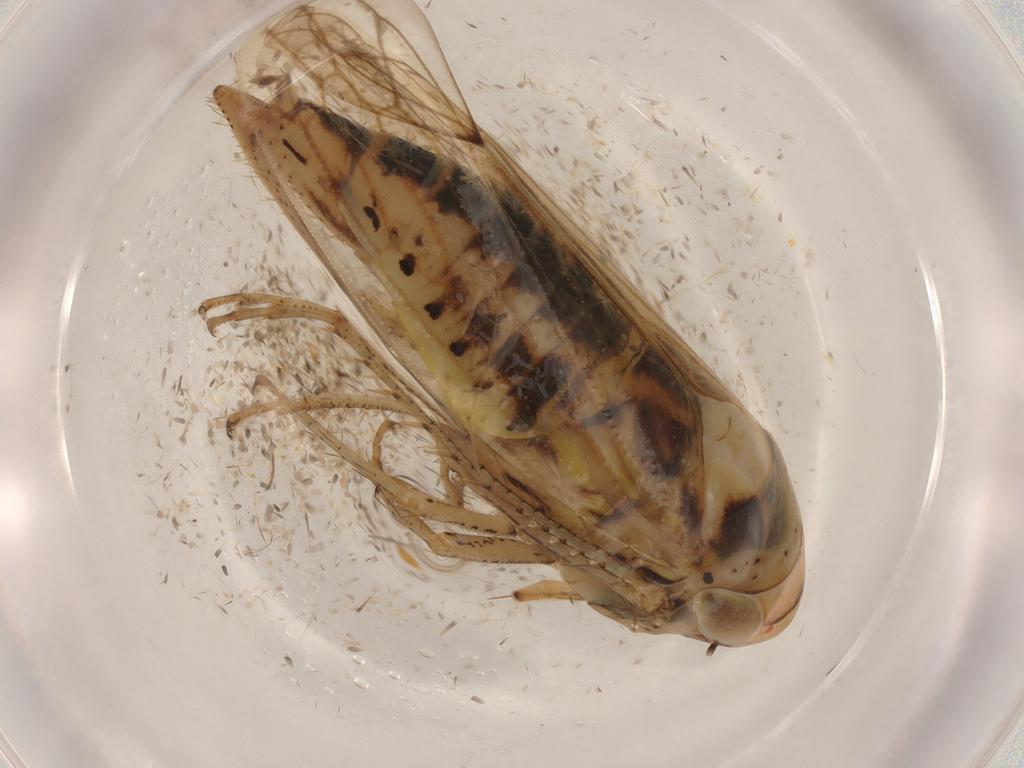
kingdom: Animalia
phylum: Arthropoda
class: Insecta
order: Hemiptera
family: Cicadellidae
